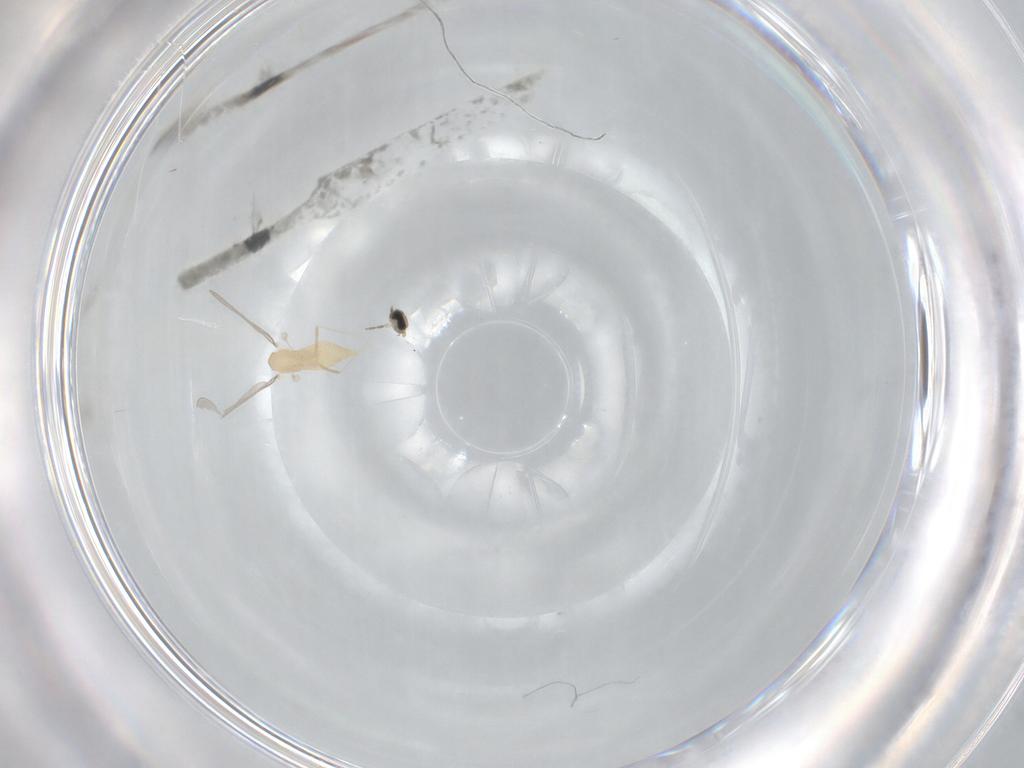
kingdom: Animalia
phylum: Arthropoda
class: Insecta
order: Diptera
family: Cecidomyiidae
